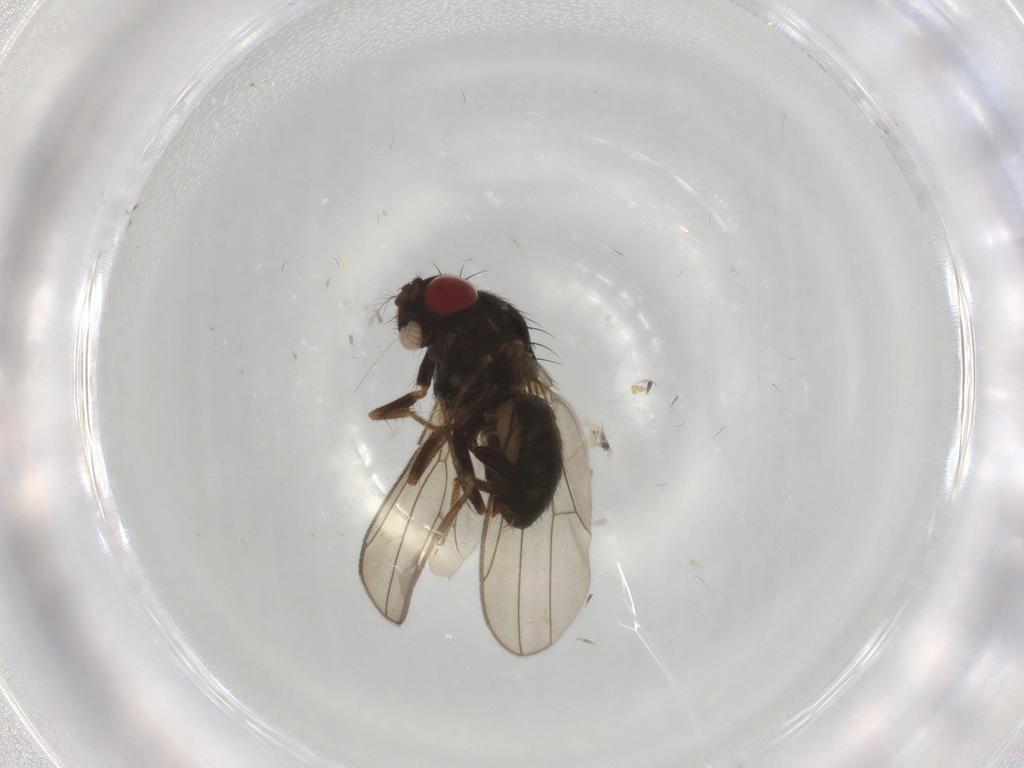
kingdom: Animalia
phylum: Arthropoda
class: Insecta
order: Diptera
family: Drosophilidae
